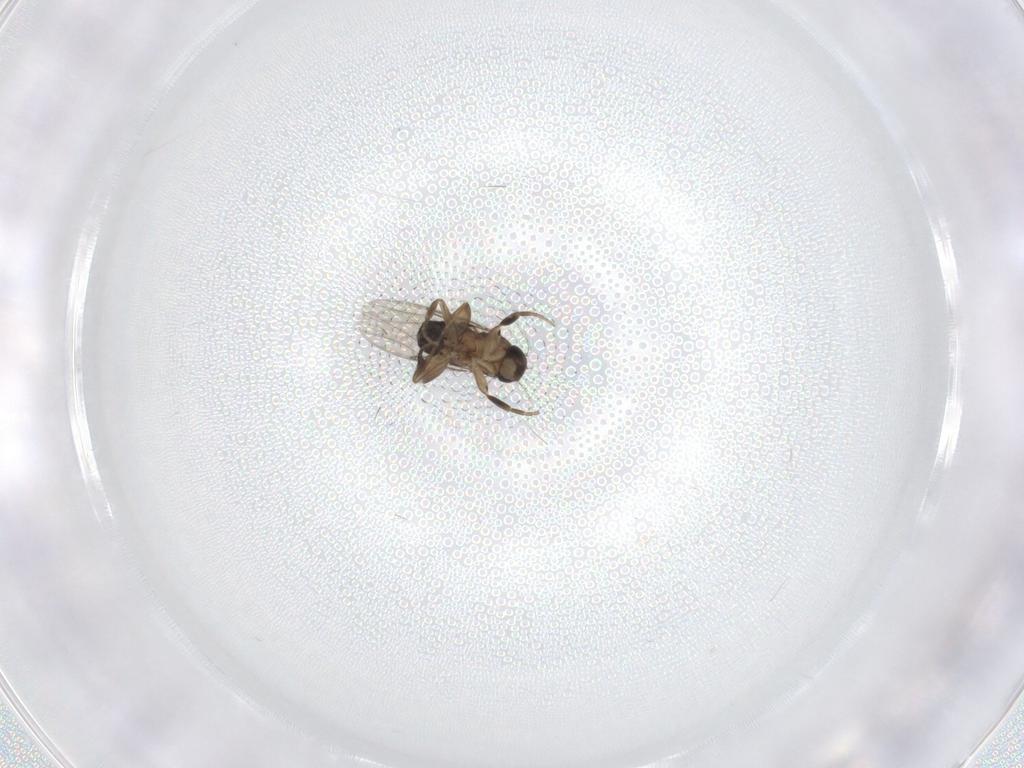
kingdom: Animalia
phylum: Arthropoda
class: Insecta
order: Diptera
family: Phoridae
